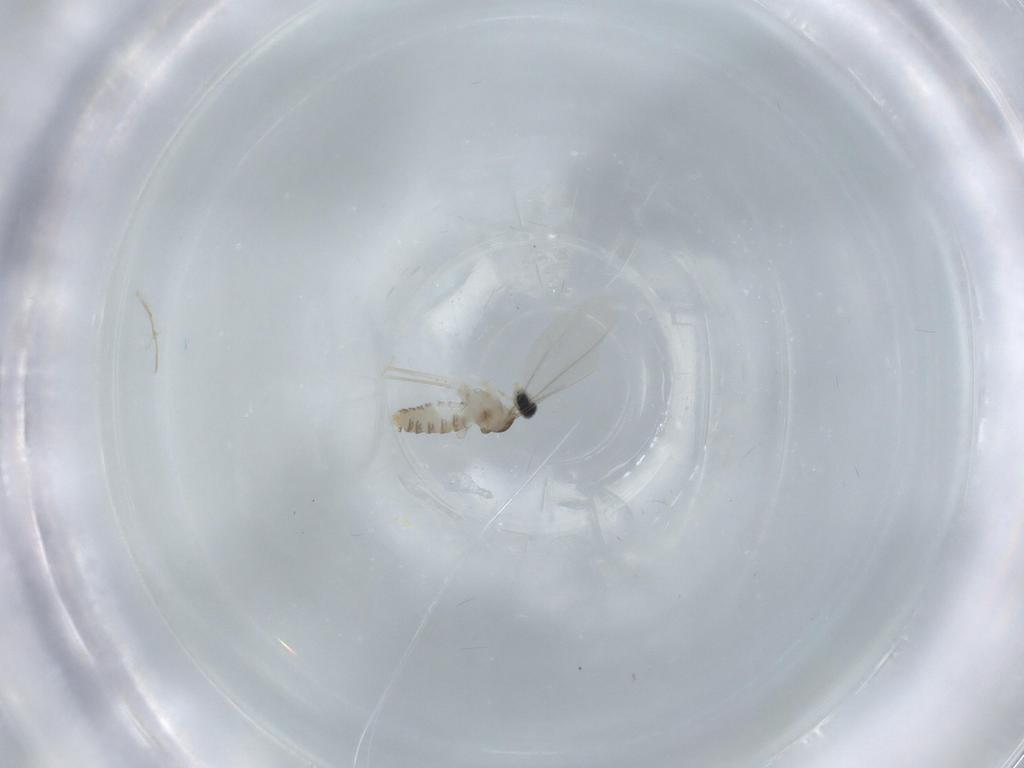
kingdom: Animalia
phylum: Arthropoda
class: Insecta
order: Diptera
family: Cecidomyiidae
